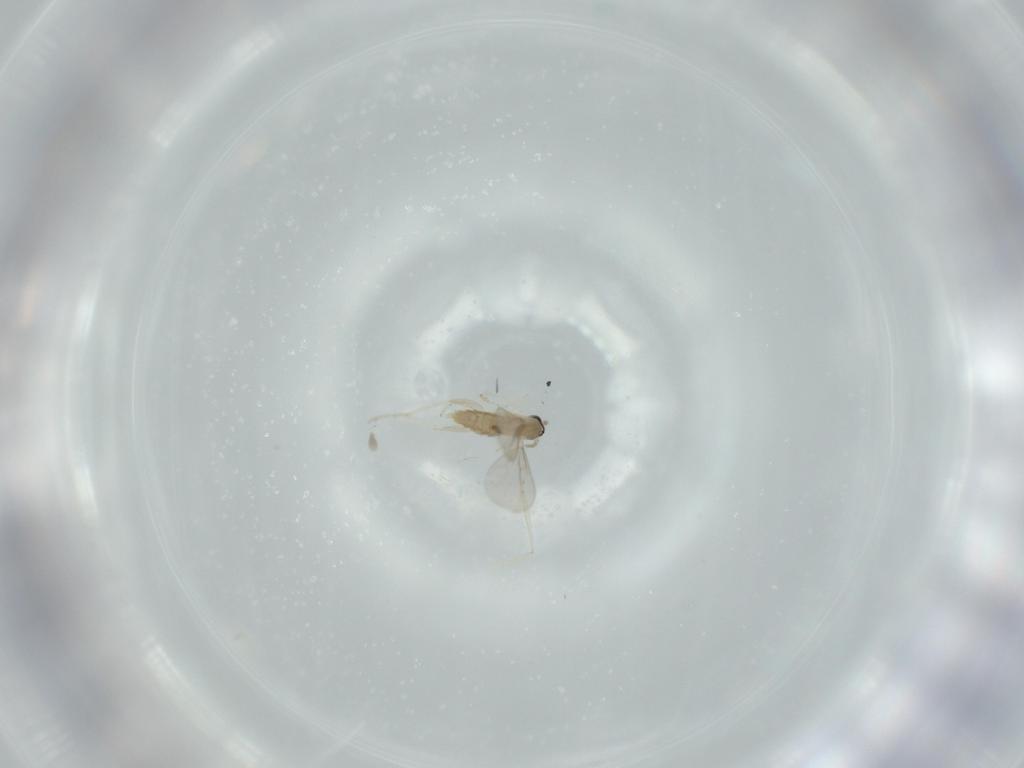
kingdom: Animalia
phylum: Arthropoda
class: Insecta
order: Diptera
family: Cecidomyiidae
